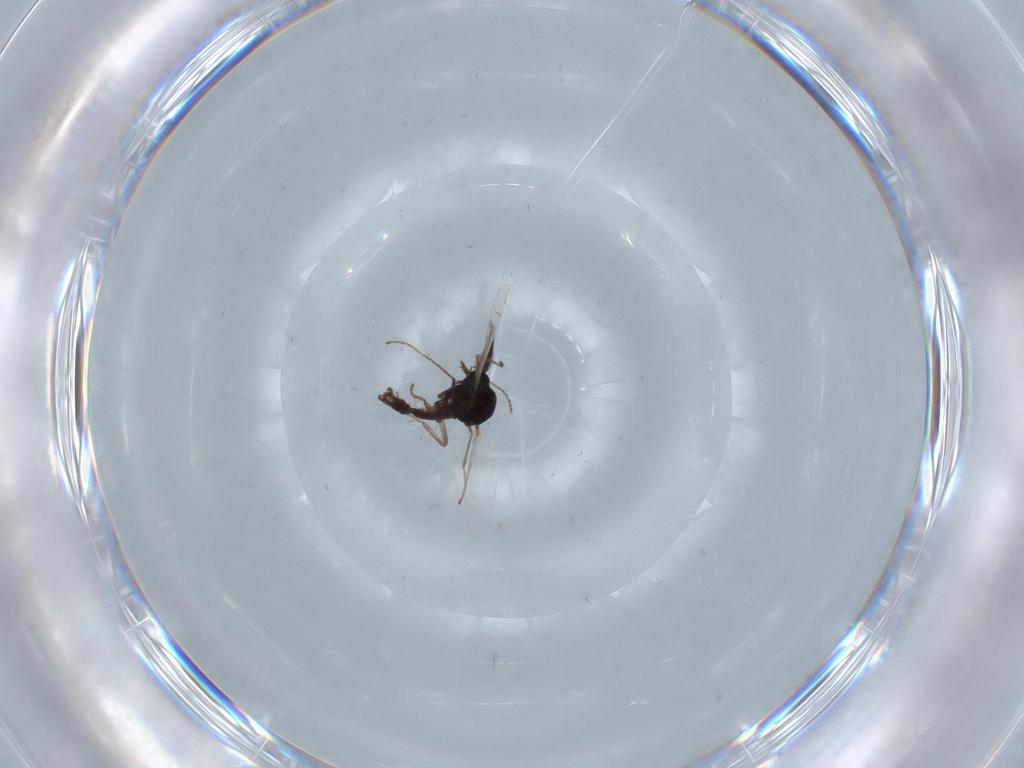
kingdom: Animalia
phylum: Arthropoda
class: Insecta
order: Diptera
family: Ceratopogonidae
